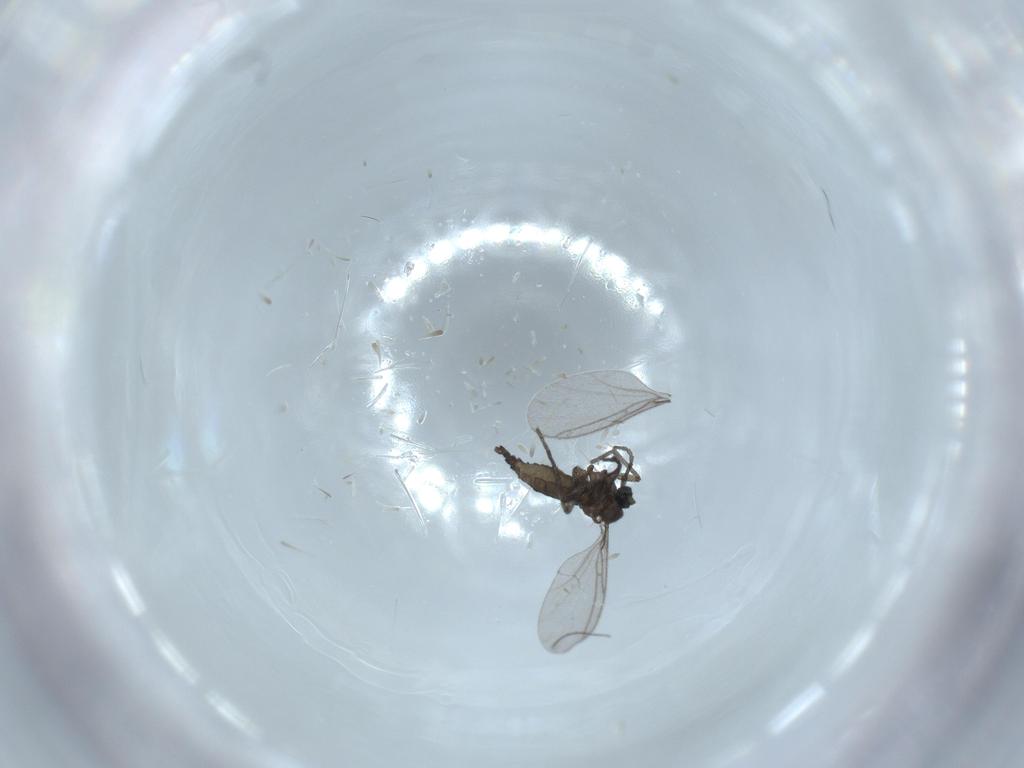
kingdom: Animalia
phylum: Arthropoda
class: Insecta
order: Diptera
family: Chironomidae
